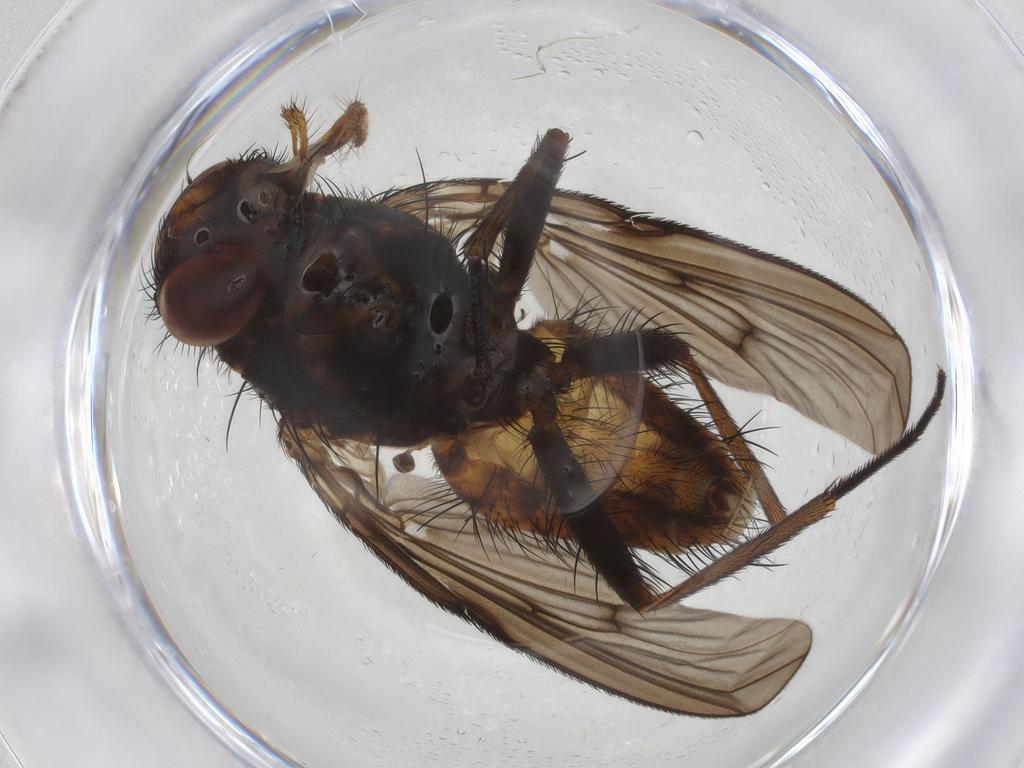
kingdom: Animalia
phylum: Arthropoda
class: Insecta
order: Diptera
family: Muscidae
